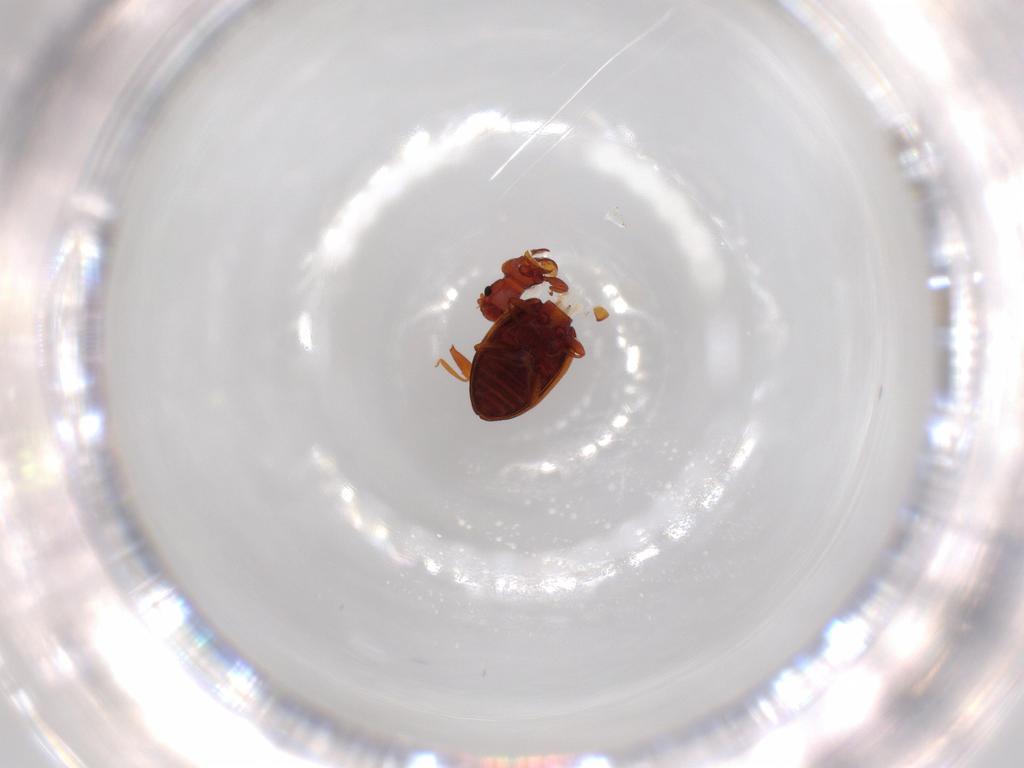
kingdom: Animalia
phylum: Arthropoda
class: Insecta
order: Coleoptera
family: Latridiidae
